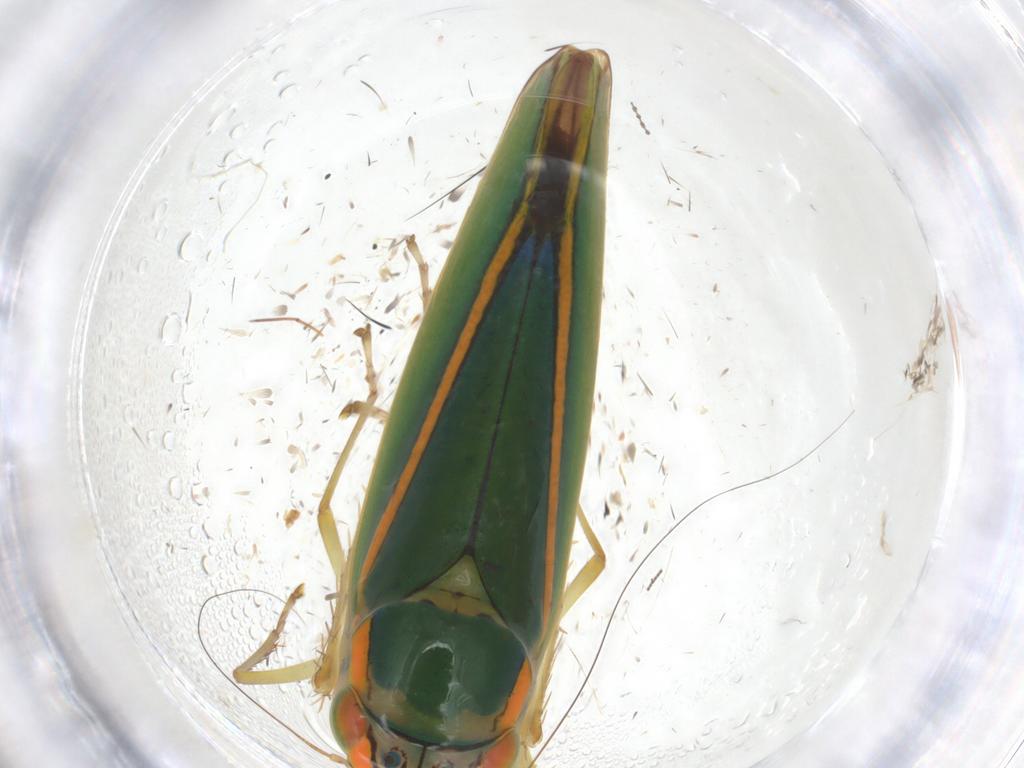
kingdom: Animalia
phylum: Arthropoda
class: Insecta
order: Hemiptera
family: Cicadellidae
